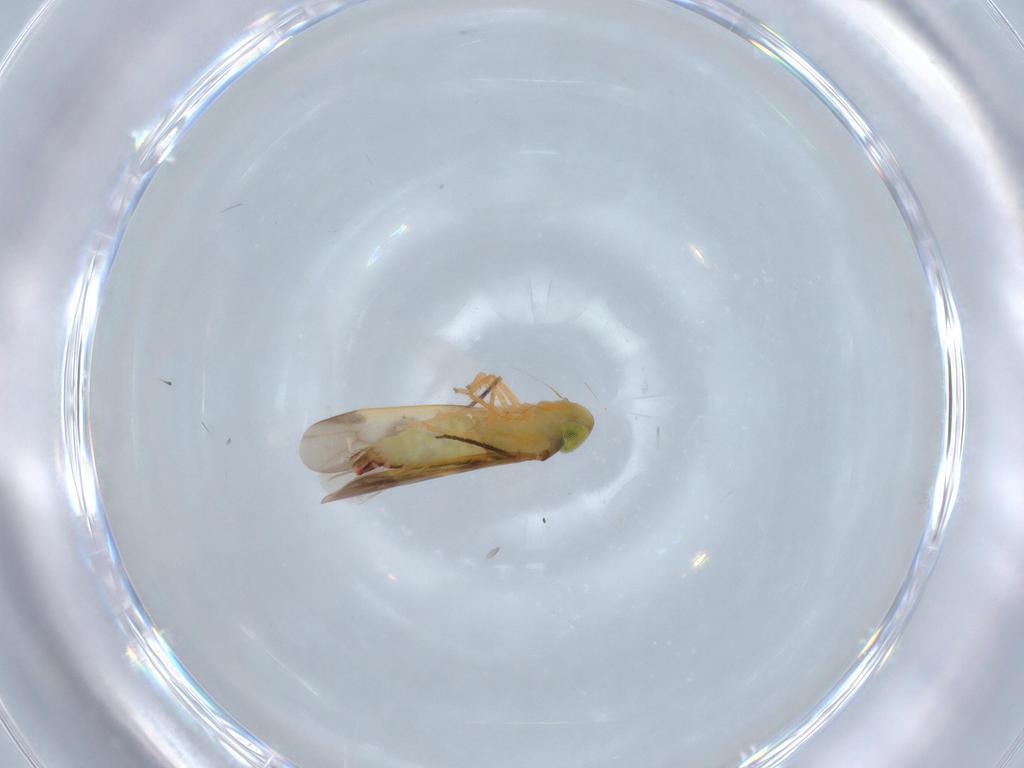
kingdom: Animalia
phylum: Arthropoda
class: Insecta
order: Hemiptera
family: Cicadellidae
